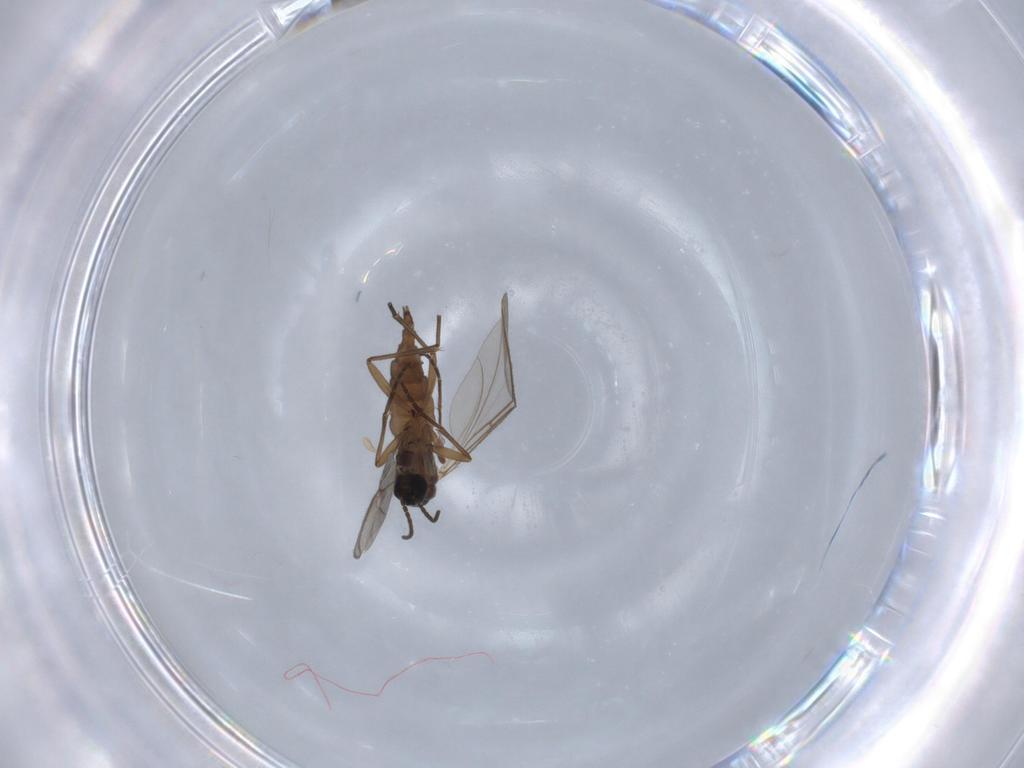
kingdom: Animalia
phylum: Arthropoda
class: Insecta
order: Diptera
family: Sciaridae
